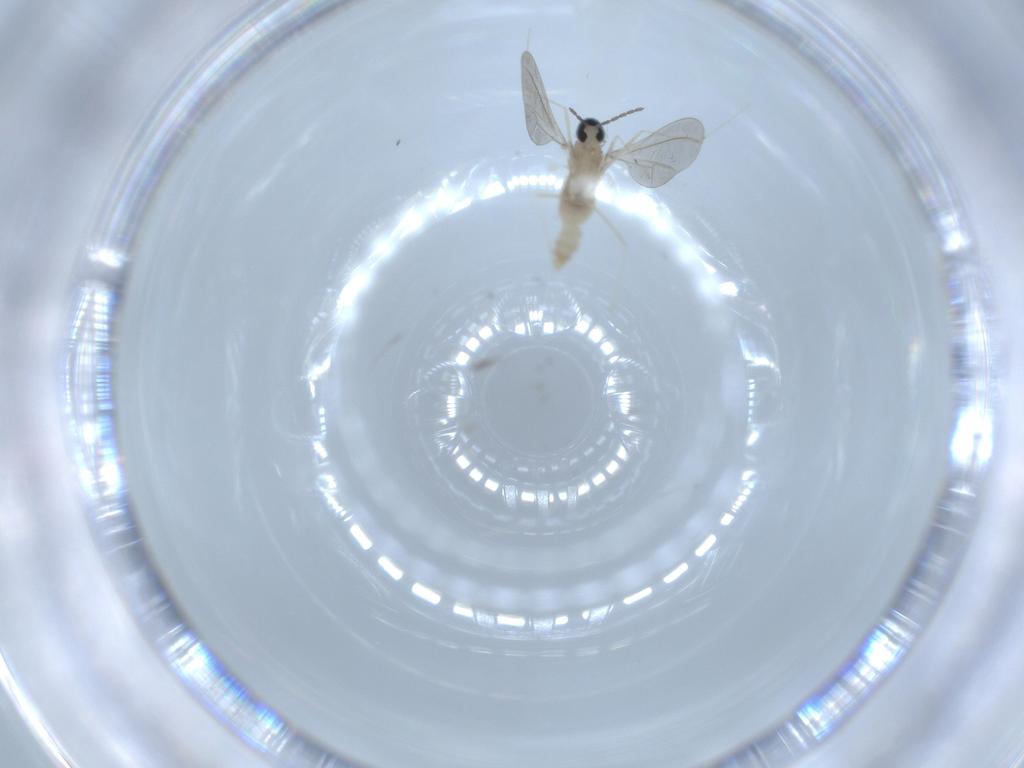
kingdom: Animalia
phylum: Arthropoda
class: Insecta
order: Diptera
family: Cecidomyiidae
